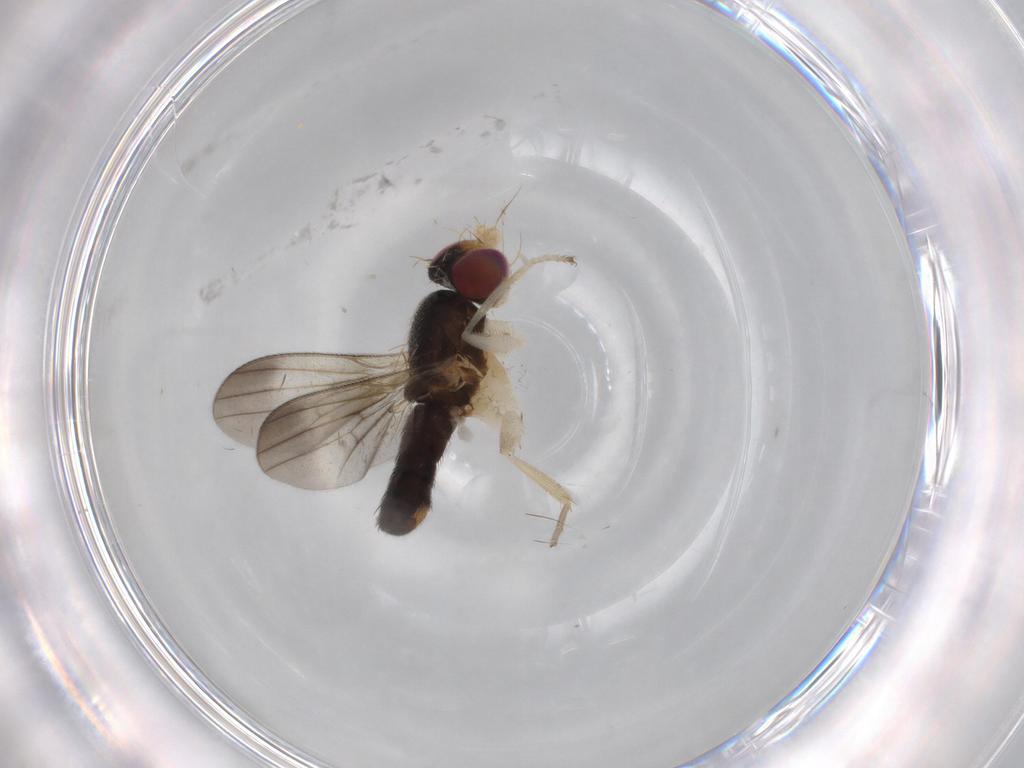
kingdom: Animalia
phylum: Arthropoda
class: Insecta
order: Diptera
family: Clusiidae
